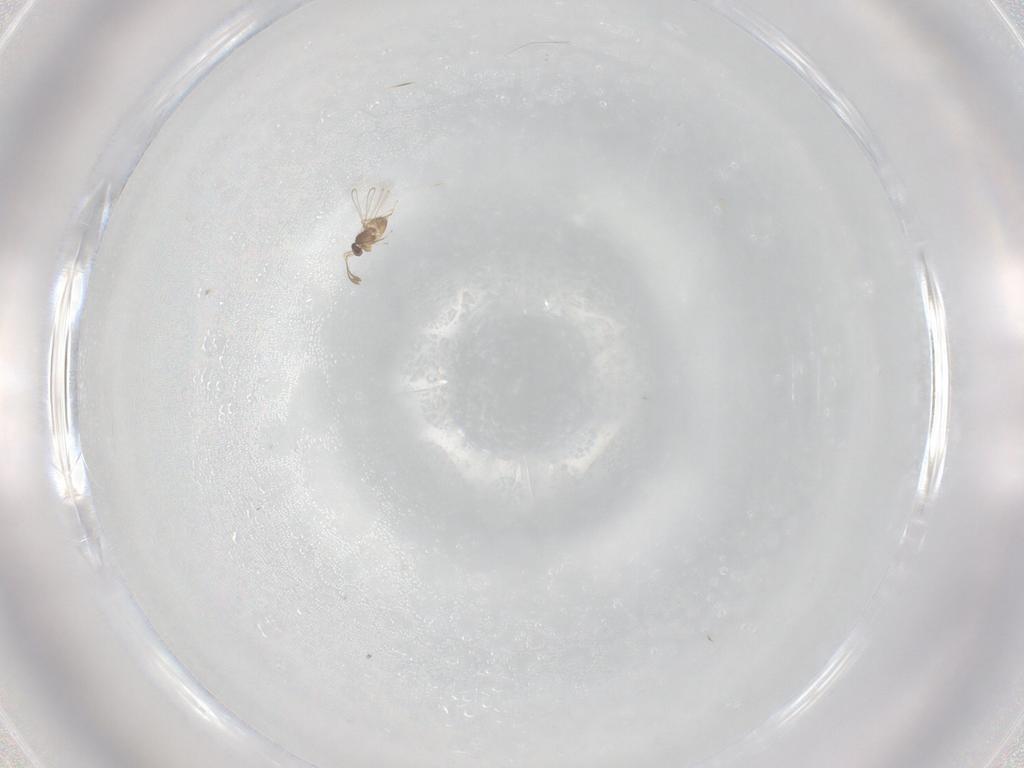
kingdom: Animalia
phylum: Arthropoda
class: Insecta
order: Hymenoptera
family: Mymaridae
